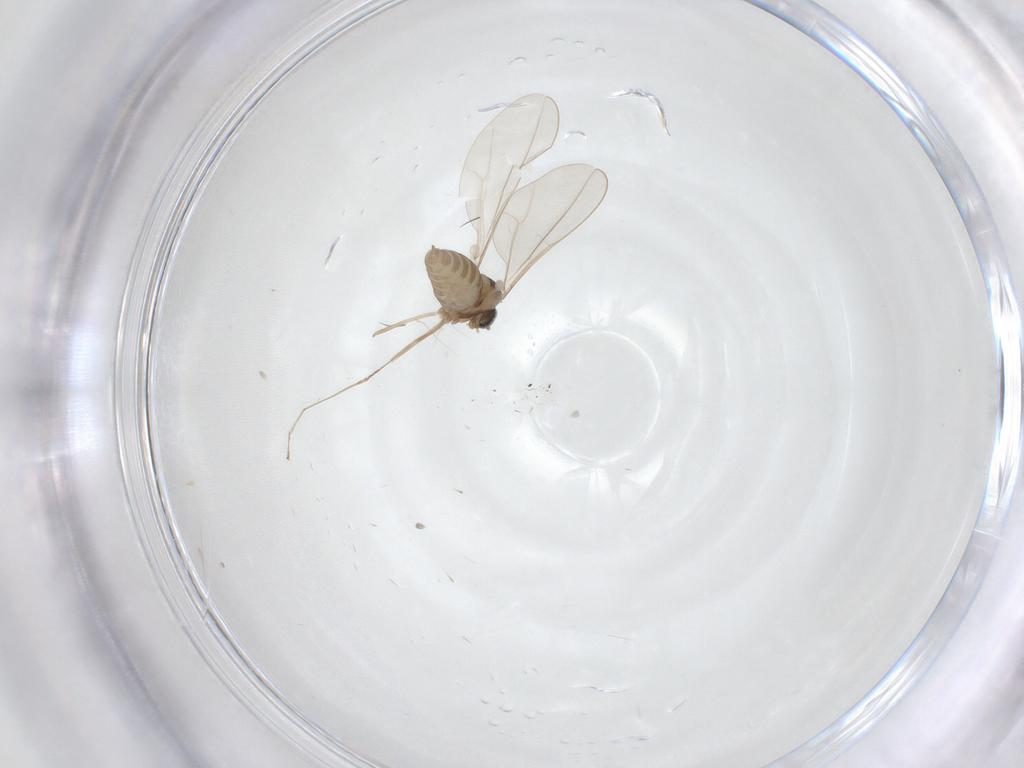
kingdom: Animalia
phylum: Arthropoda
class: Insecta
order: Diptera
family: Cecidomyiidae
